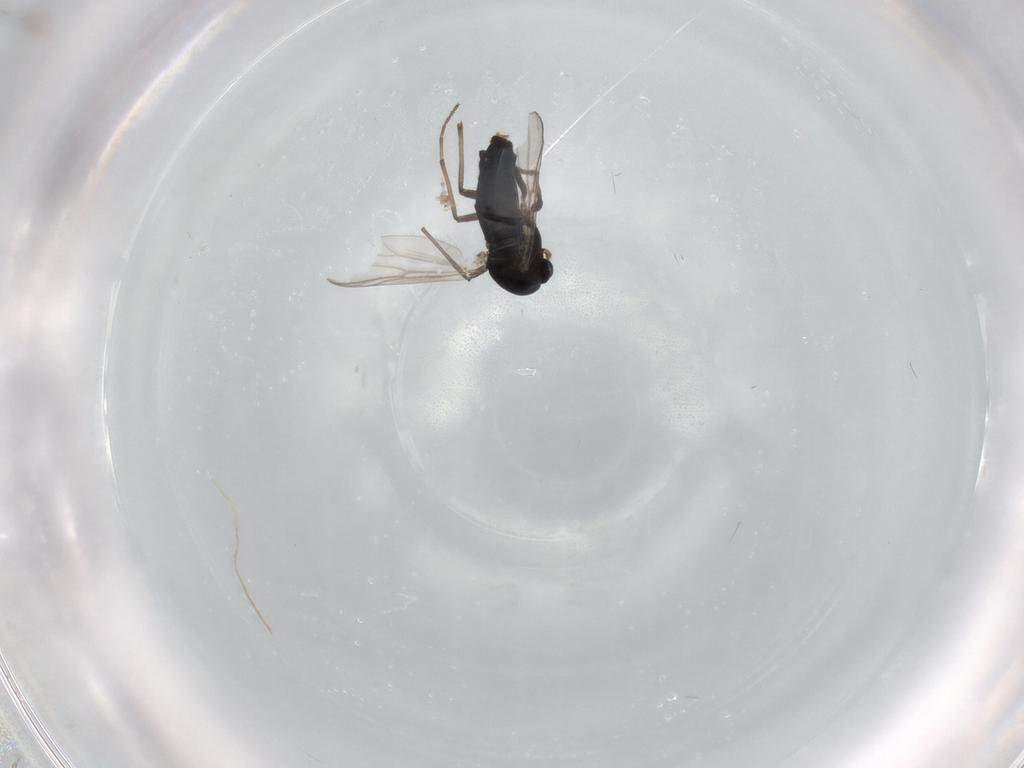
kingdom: Animalia
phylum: Arthropoda
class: Insecta
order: Diptera
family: Chironomidae
